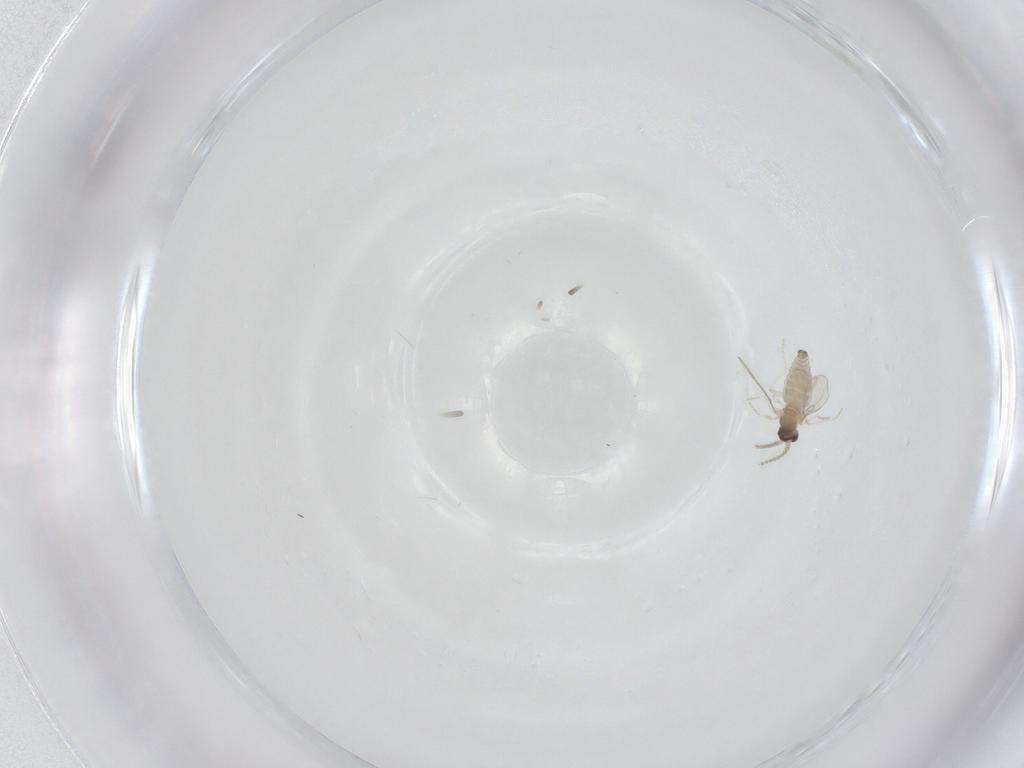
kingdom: Animalia
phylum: Arthropoda
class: Insecta
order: Diptera
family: Cecidomyiidae
